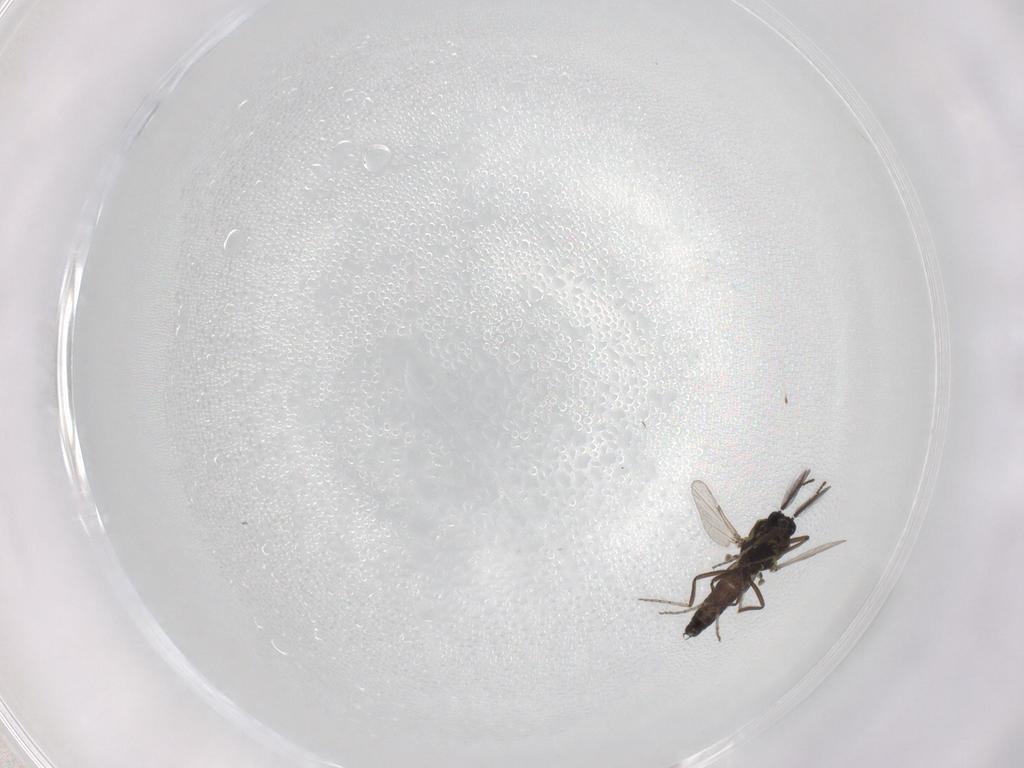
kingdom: Animalia
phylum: Arthropoda
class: Insecta
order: Diptera
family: Ceratopogonidae
